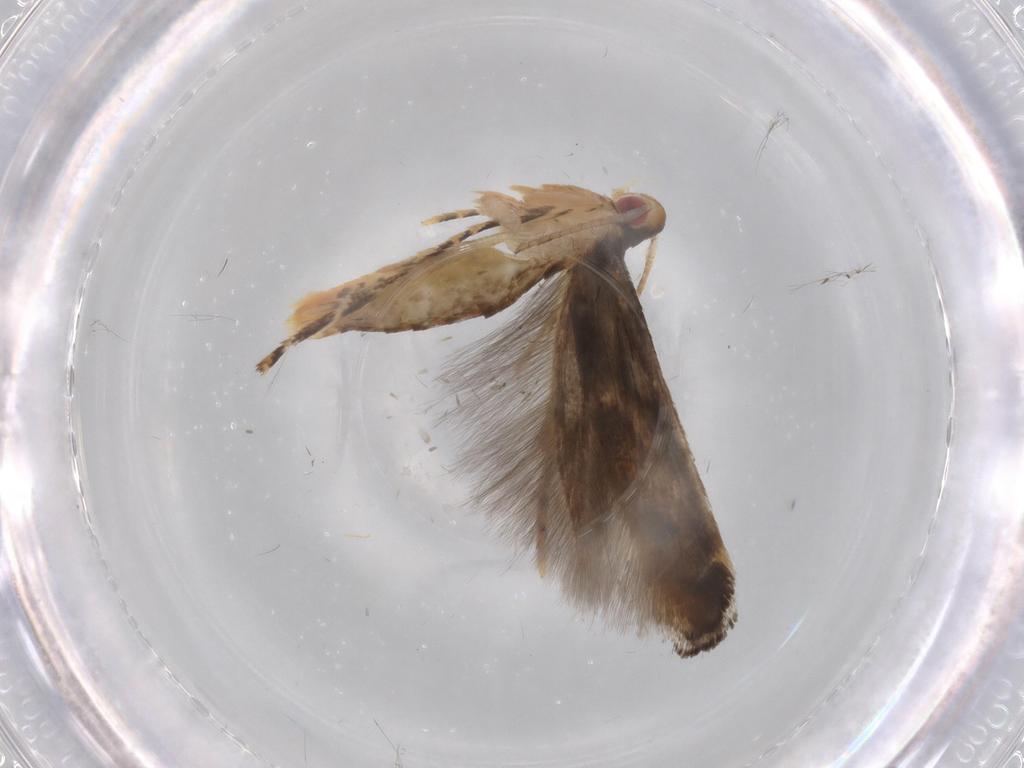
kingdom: Animalia
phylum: Arthropoda
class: Insecta
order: Lepidoptera
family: Momphidae
